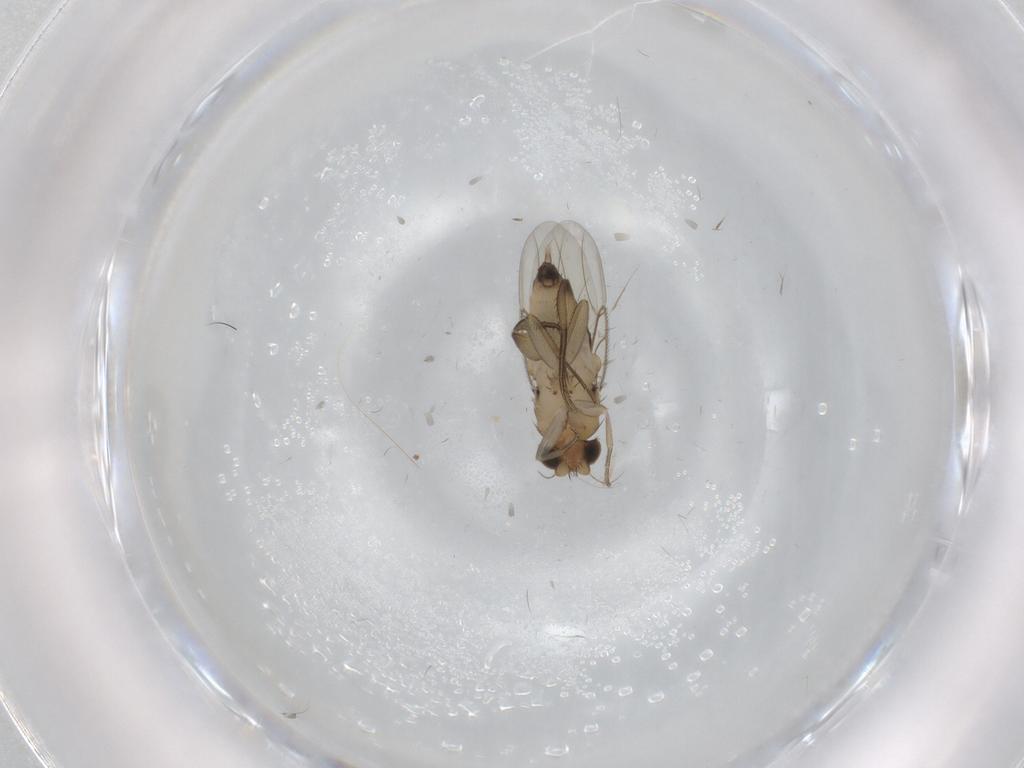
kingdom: Animalia
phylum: Arthropoda
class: Insecta
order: Diptera
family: Phoridae
